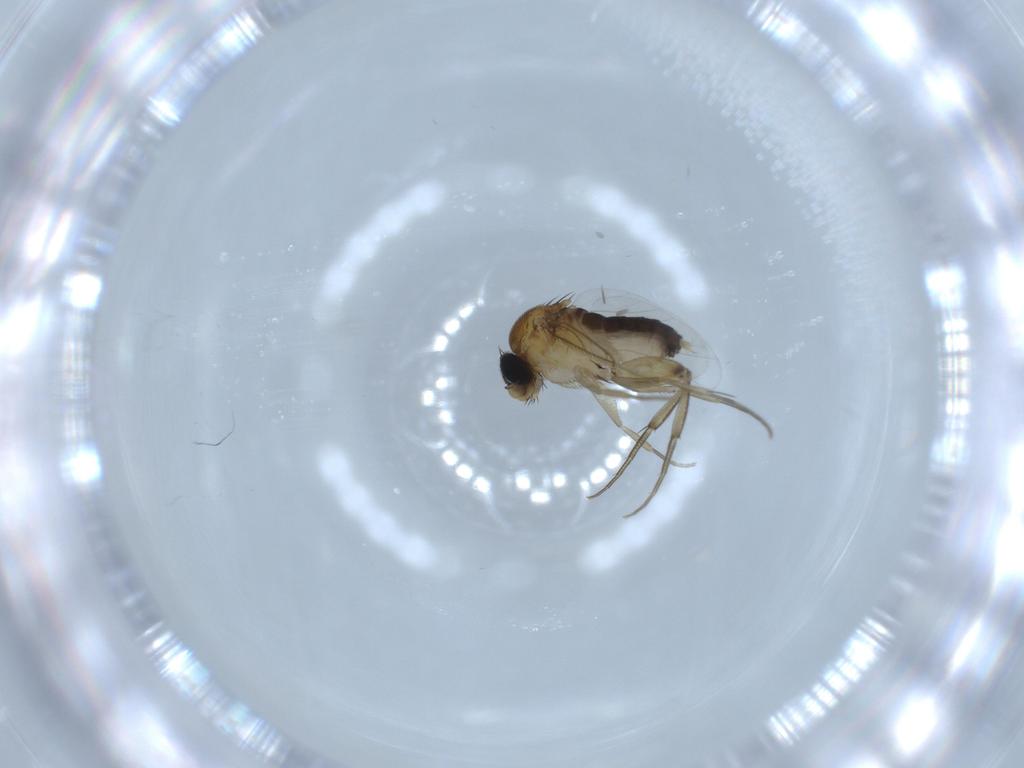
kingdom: Animalia
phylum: Arthropoda
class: Insecta
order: Diptera
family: Phoridae
